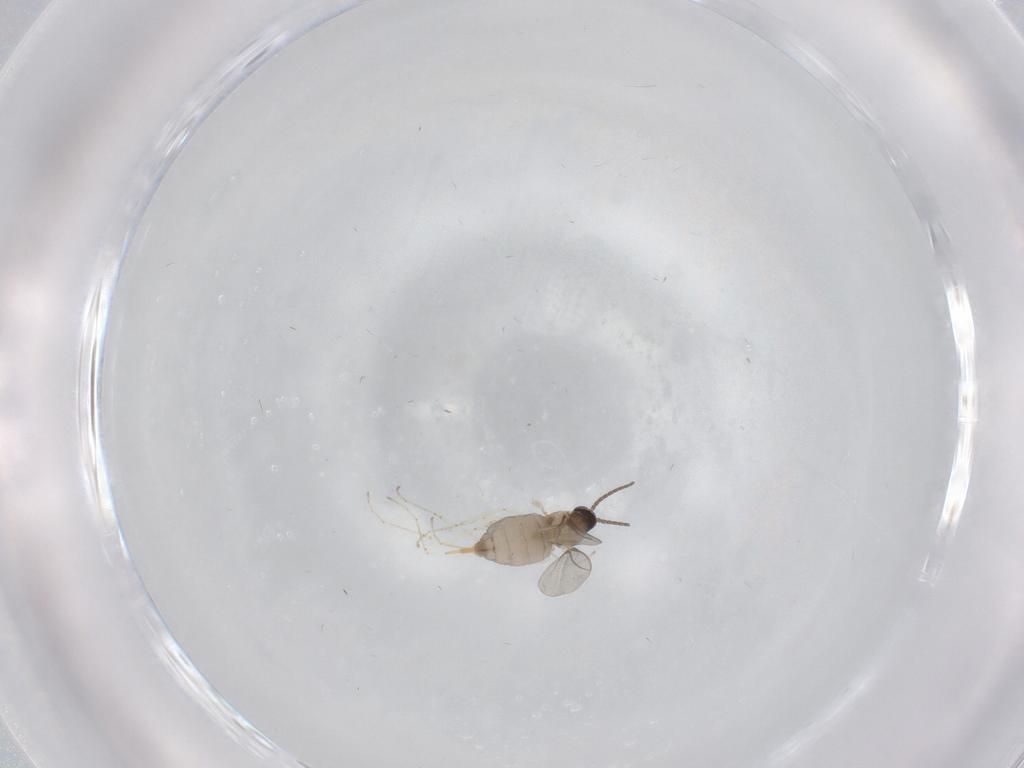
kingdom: Animalia
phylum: Arthropoda
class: Insecta
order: Diptera
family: Cecidomyiidae
